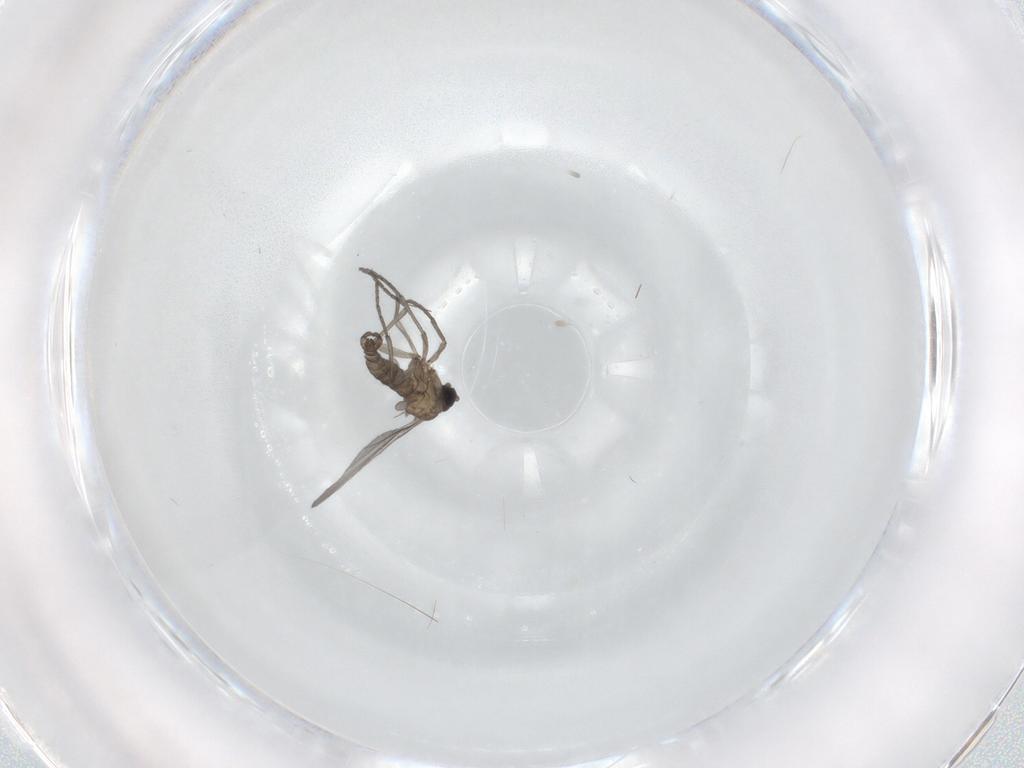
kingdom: Animalia
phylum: Arthropoda
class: Insecta
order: Diptera
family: Sciaridae
